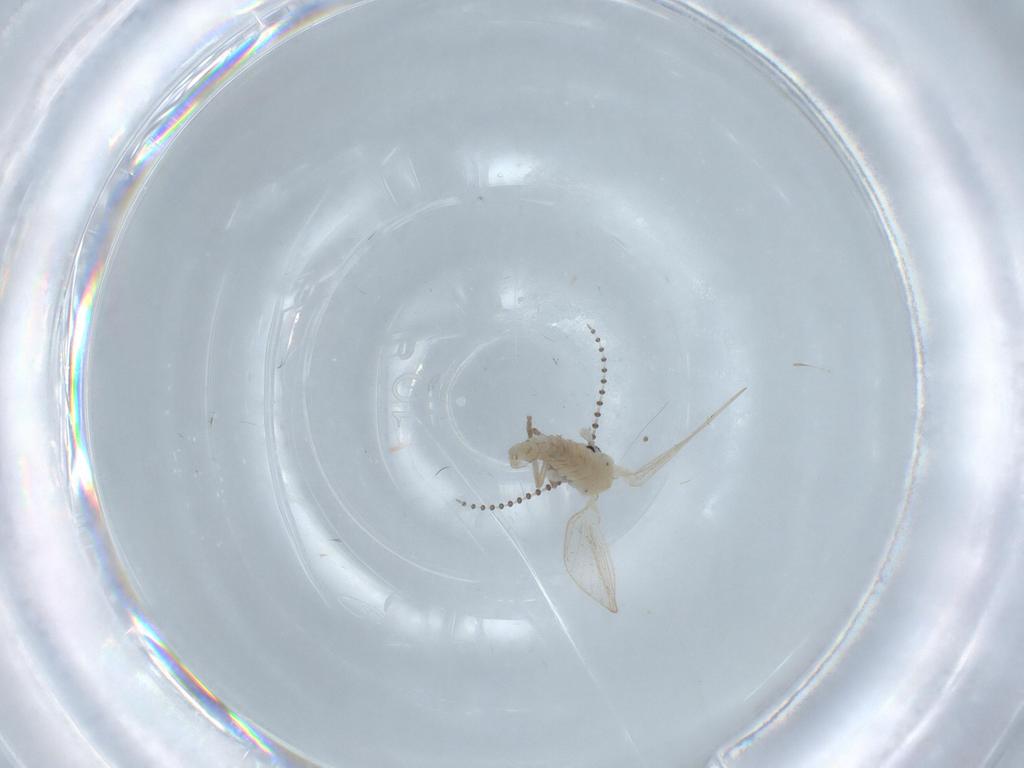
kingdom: Animalia
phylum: Arthropoda
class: Insecta
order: Diptera
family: Psychodidae
